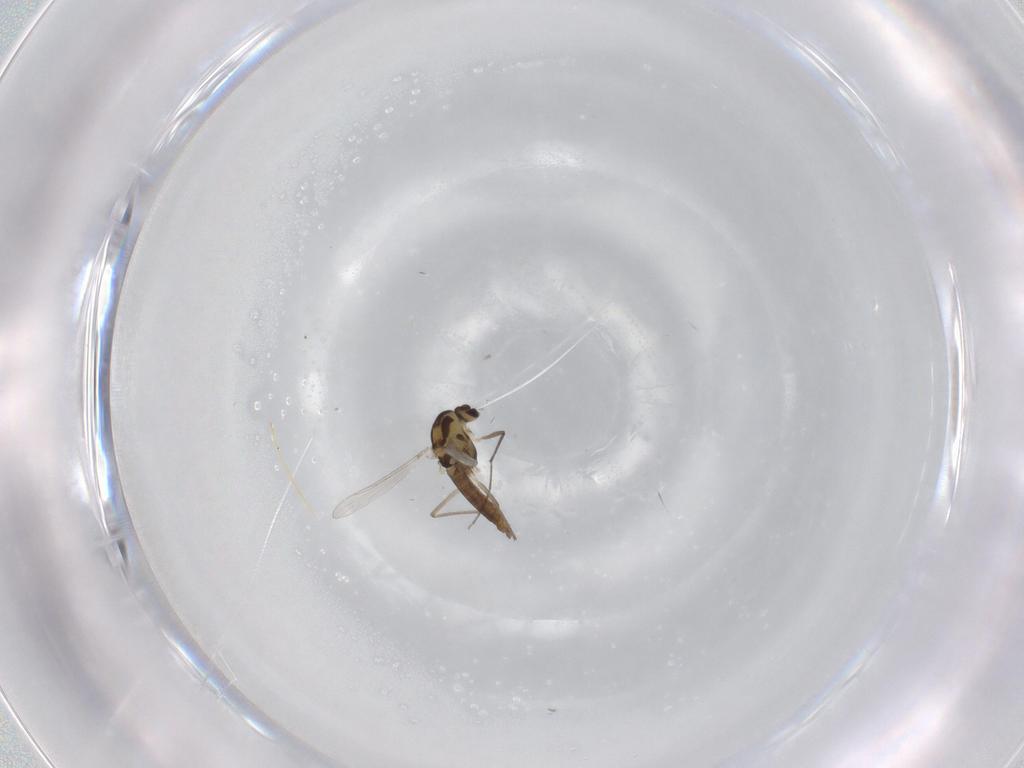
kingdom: Animalia
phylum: Arthropoda
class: Insecta
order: Diptera
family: Chironomidae
